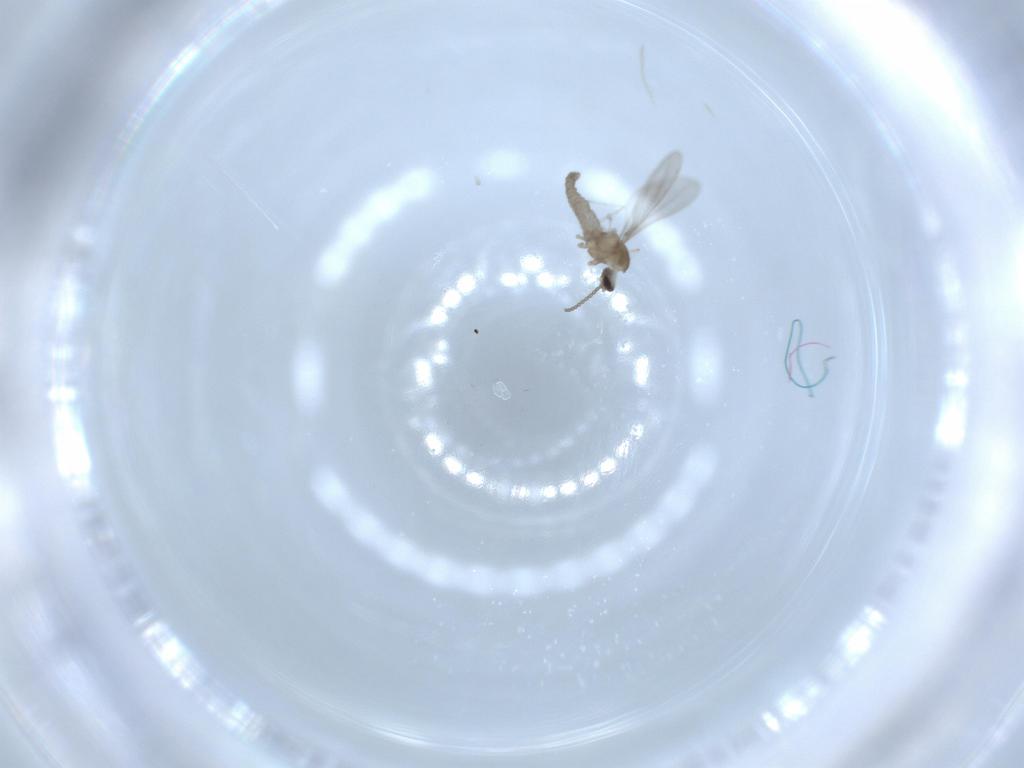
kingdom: Animalia
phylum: Arthropoda
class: Insecta
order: Diptera
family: Cecidomyiidae
